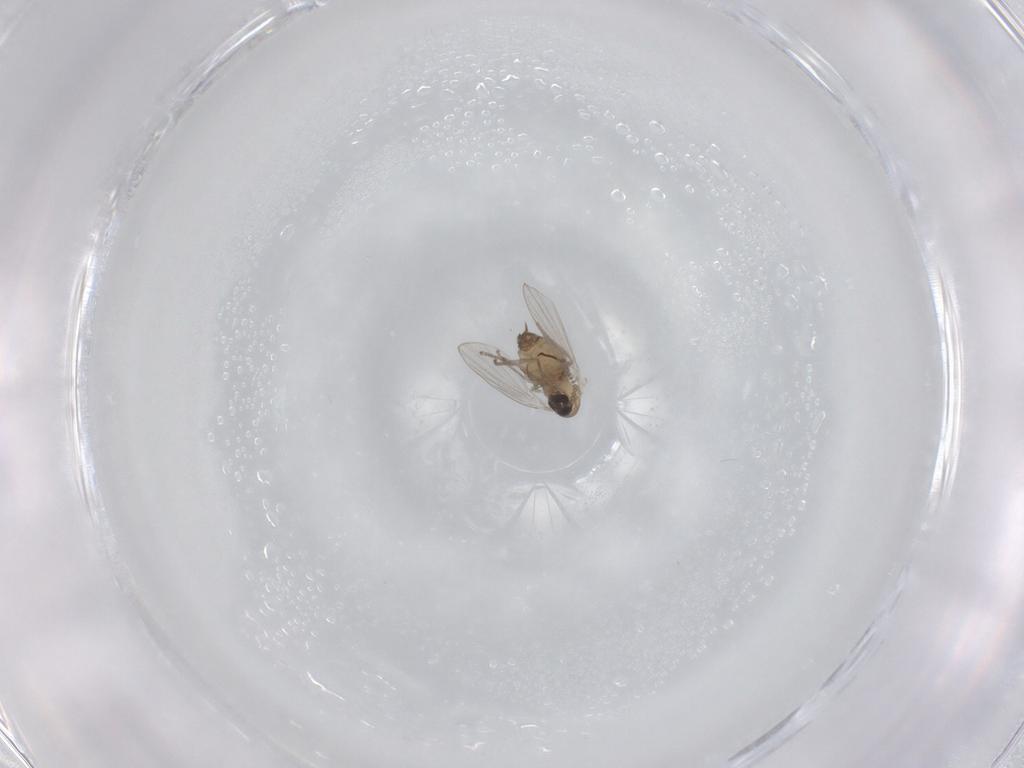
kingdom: Animalia
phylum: Arthropoda
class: Insecta
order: Diptera
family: Psychodidae
